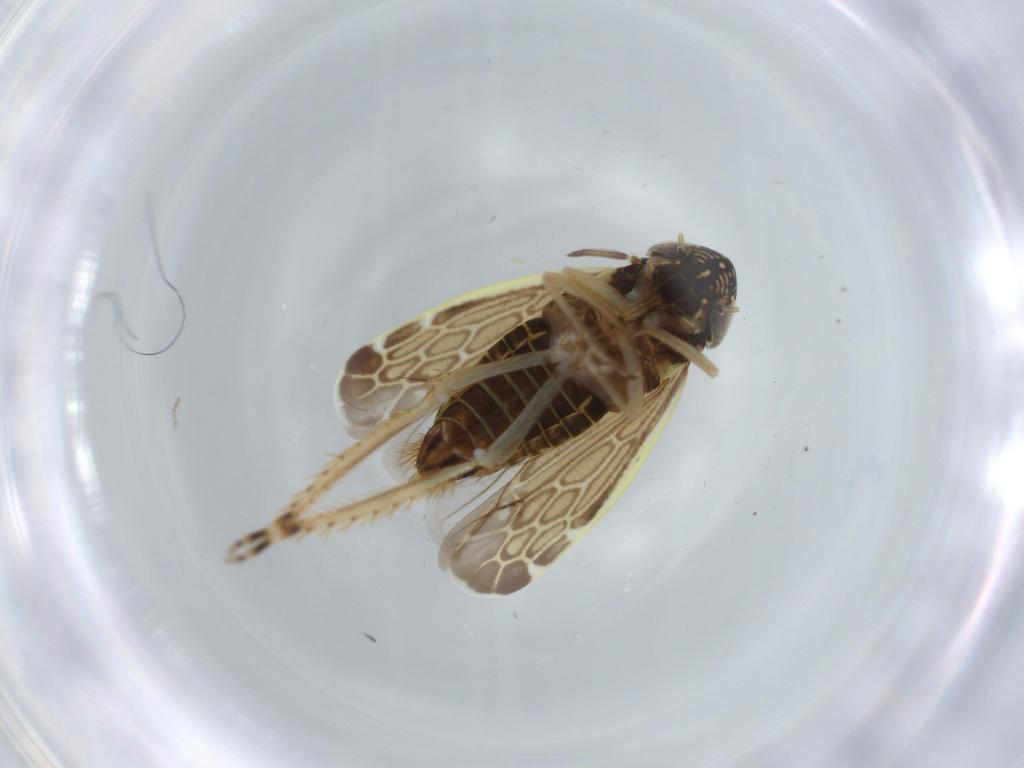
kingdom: Animalia
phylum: Arthropoda
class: Insecta
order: Hemiptera
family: Cicadellidae
